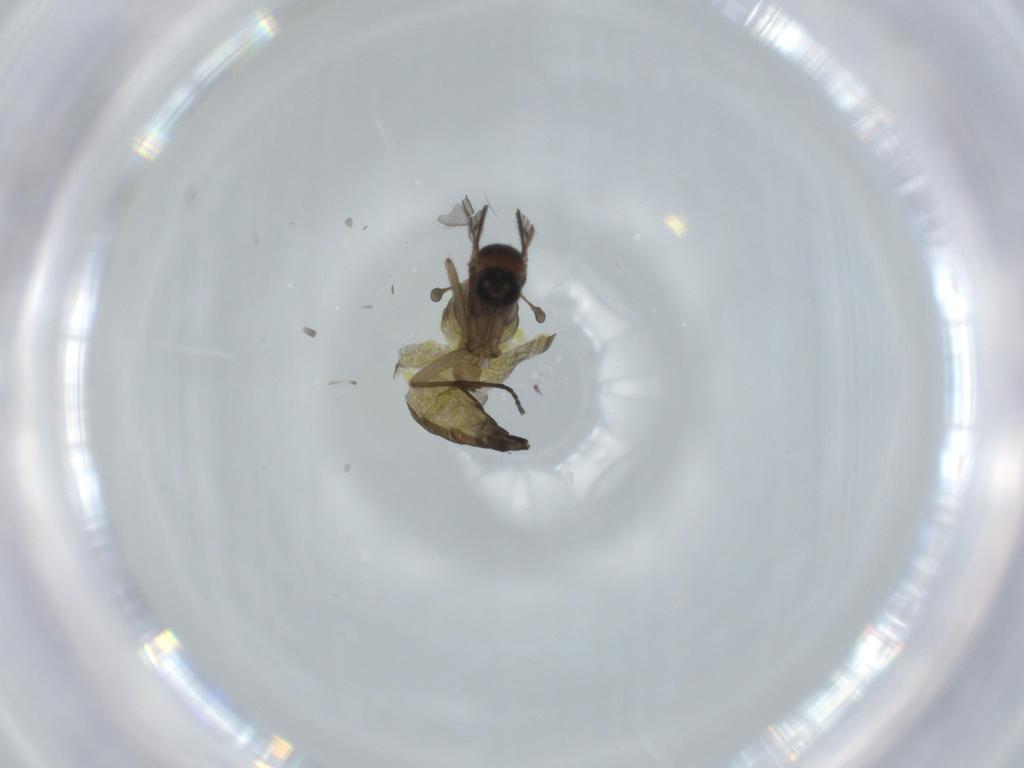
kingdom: Animalia
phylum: Arthropoda
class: Insecta
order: Diptera
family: Sciaridae
